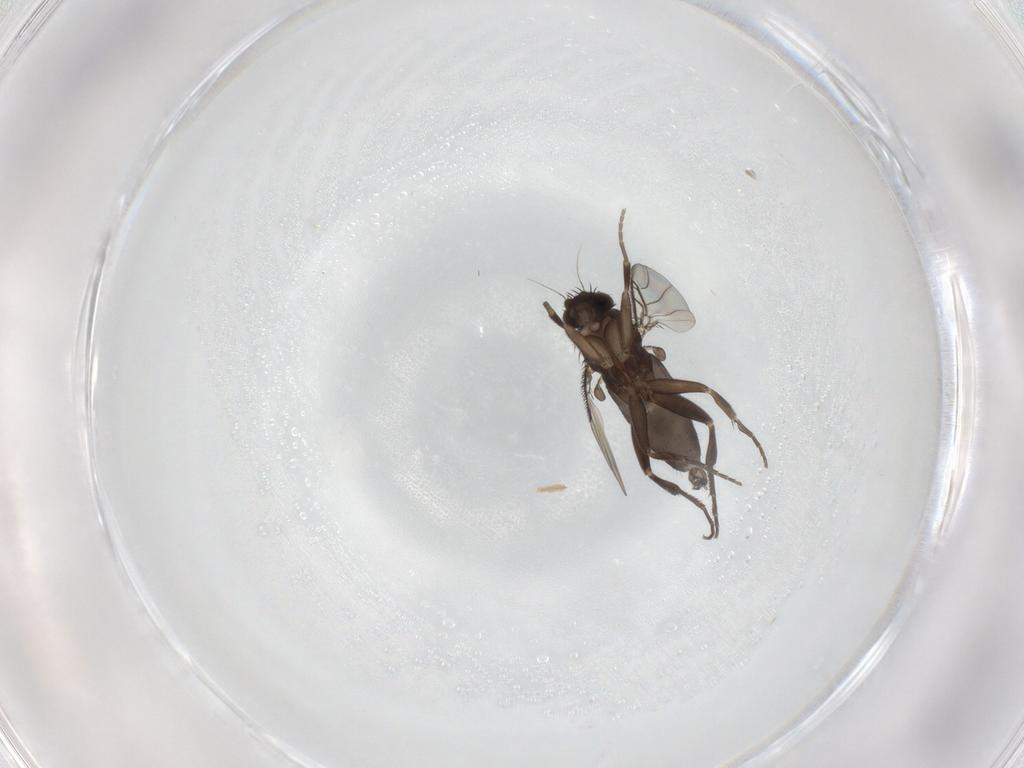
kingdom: Animalia
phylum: Arthropoda
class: Insecta
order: Diptera
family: Phoridae
